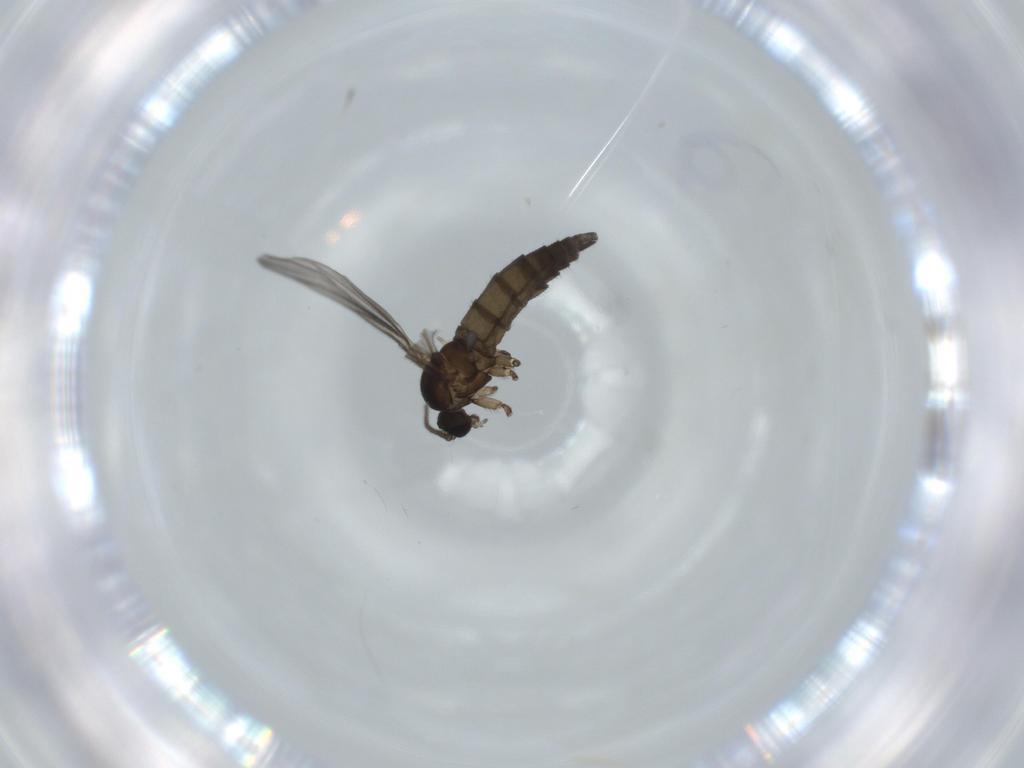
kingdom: Animalia
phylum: Arthropoda
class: Insecta
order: Diptera
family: Sciaridae
